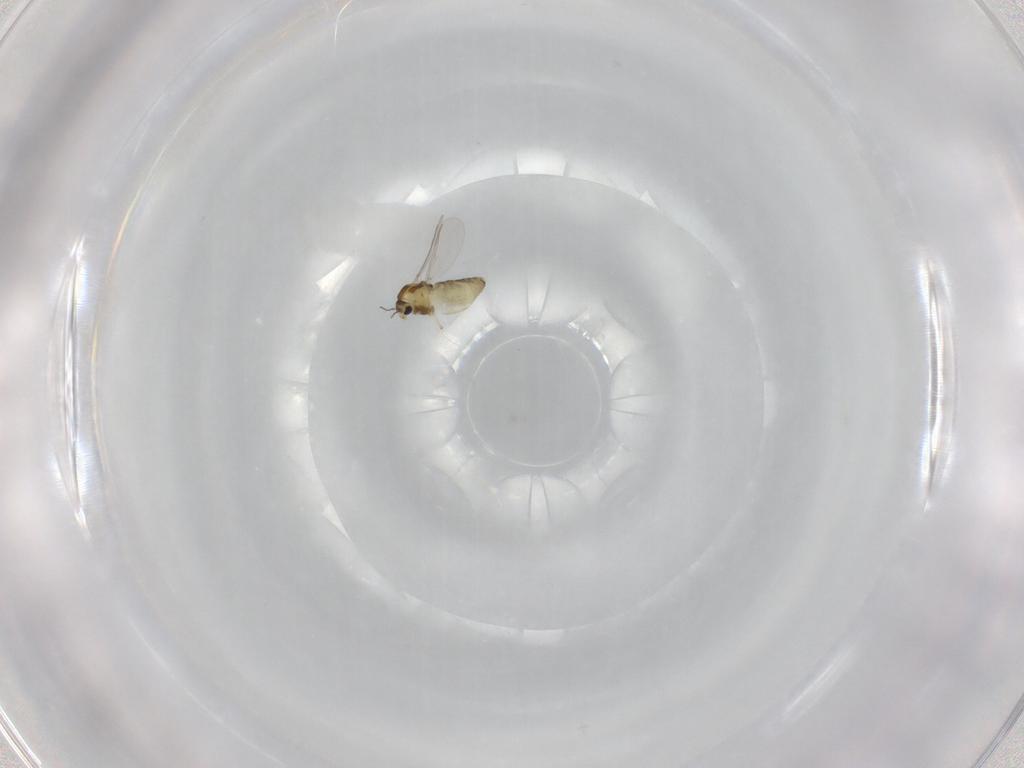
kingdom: Animalia
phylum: Arthropoda
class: Insecta
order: Diptera
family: Chironomidae
